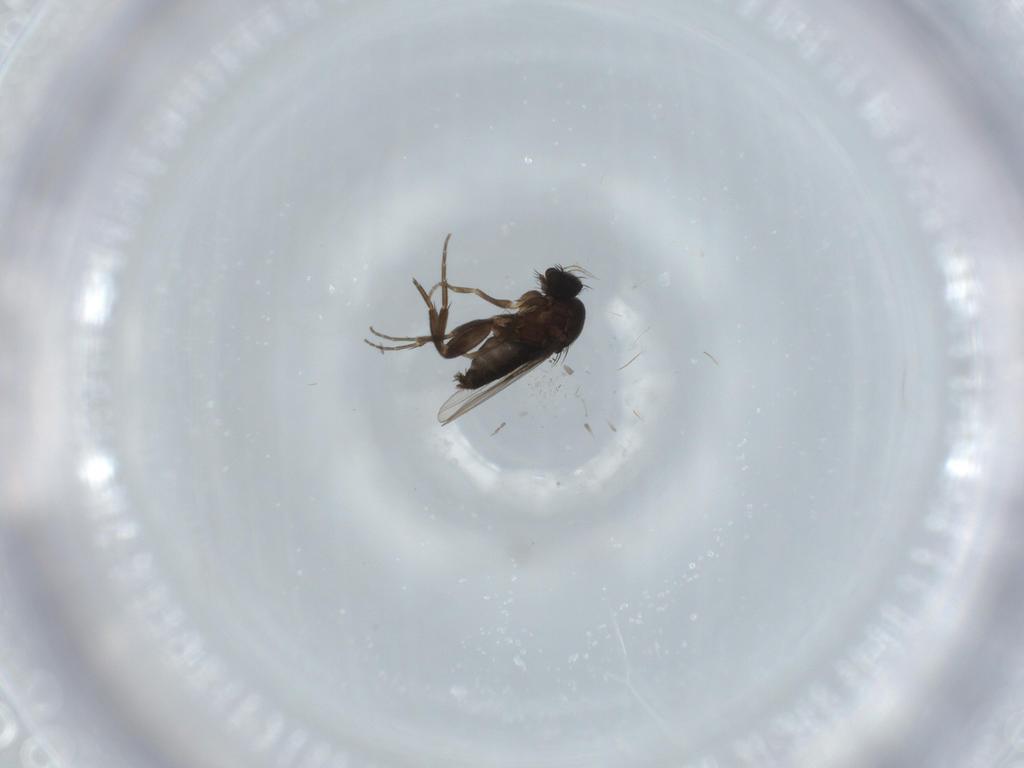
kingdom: Animalia
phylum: Arthropoda
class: Insecta
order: Diptera
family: Phoridae
